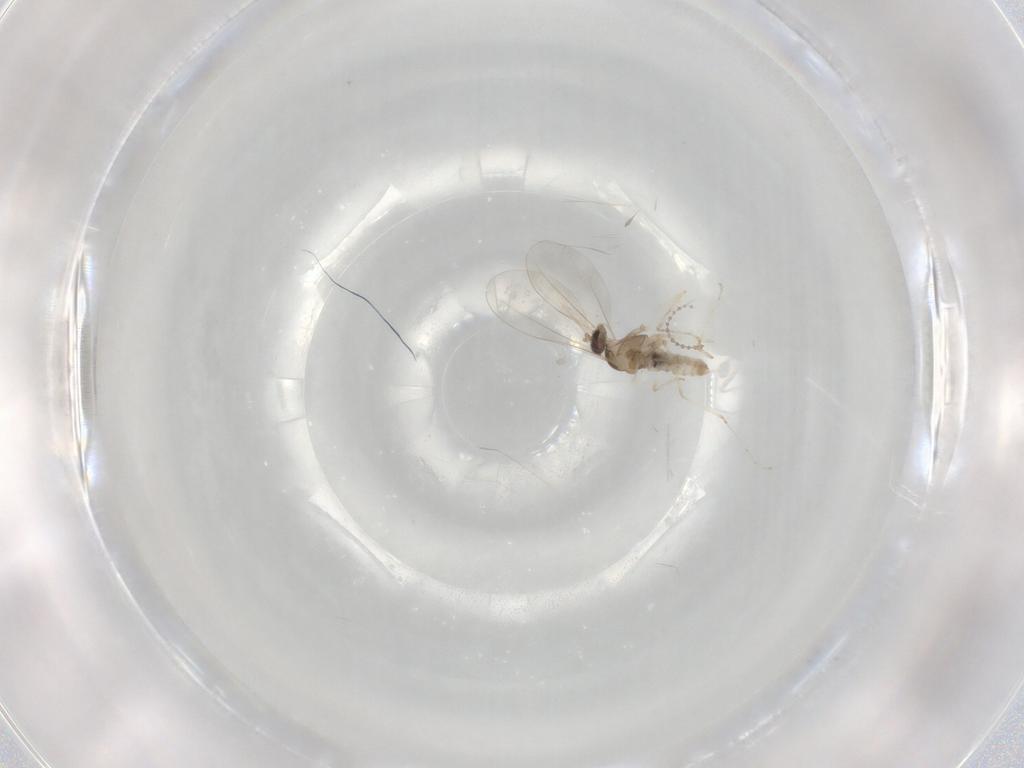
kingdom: Animalia
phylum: Arthropoda
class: Insecta
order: Diptera
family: Cecidomyiidae
